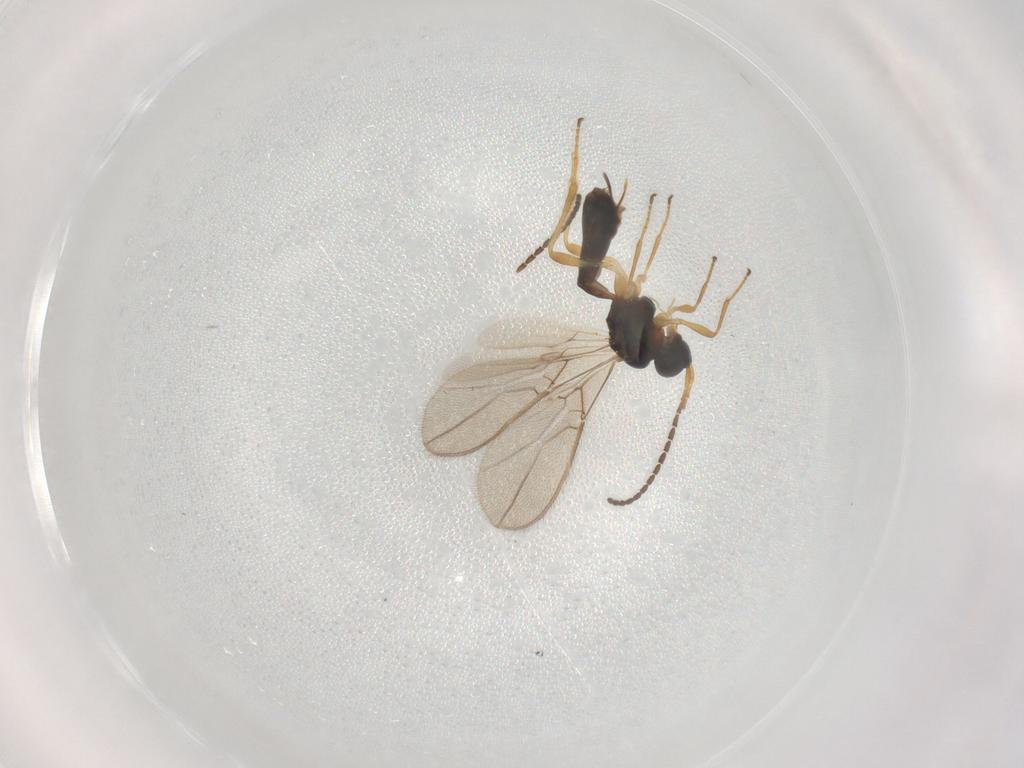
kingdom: Animalia
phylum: Arthropoda
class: Insecta
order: Hymenoptera
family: Braconidae
